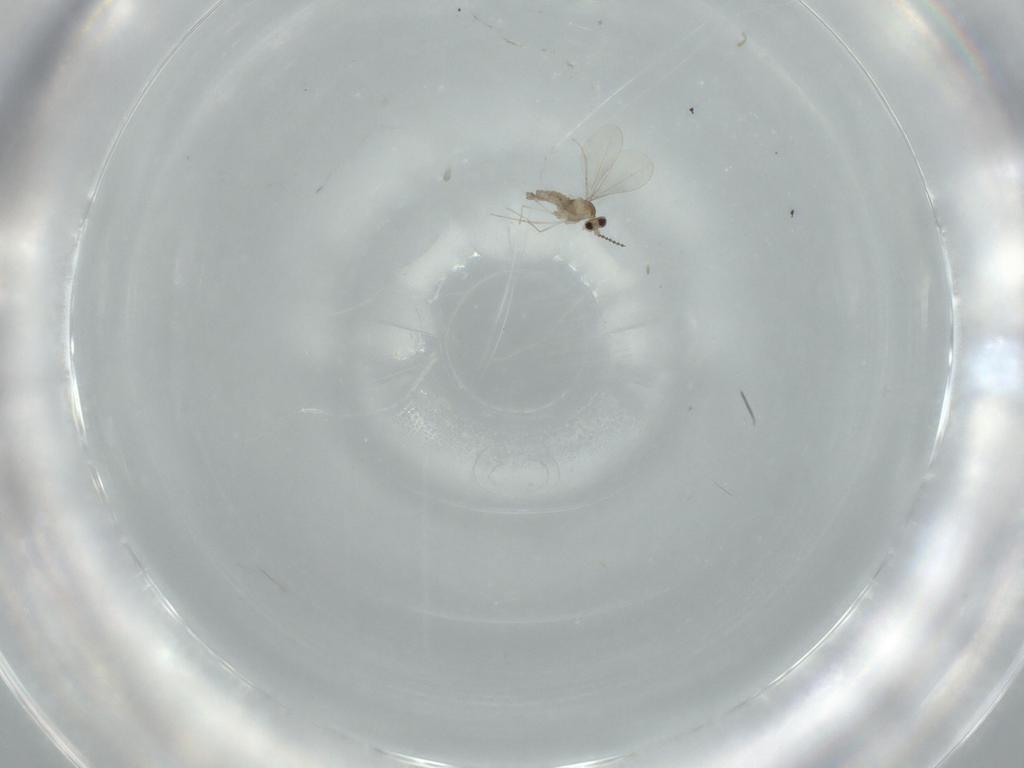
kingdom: Animalia
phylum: Arthropoda
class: Insecta
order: Diptera
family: Cecidomyiidae
